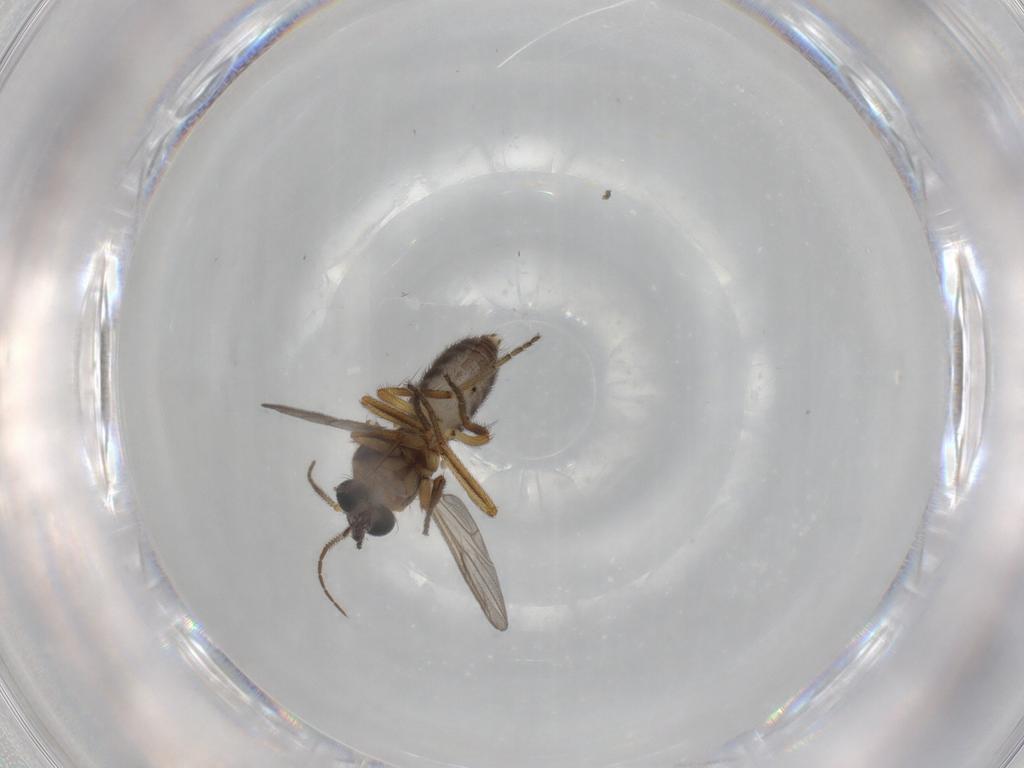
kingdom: Animalia
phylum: Arthropoda
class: Insecta
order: Diptera
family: Ceratopogonidae
